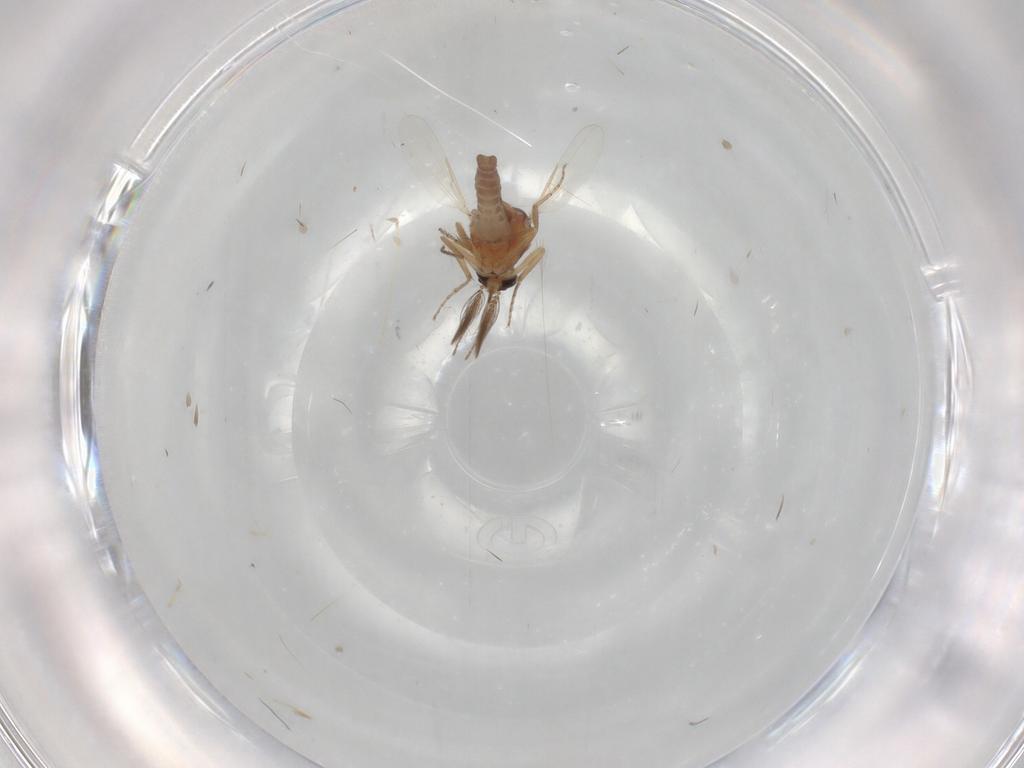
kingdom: Animalia
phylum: Arthropoda
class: Insecta
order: Diptera
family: Ceratopogonidae
